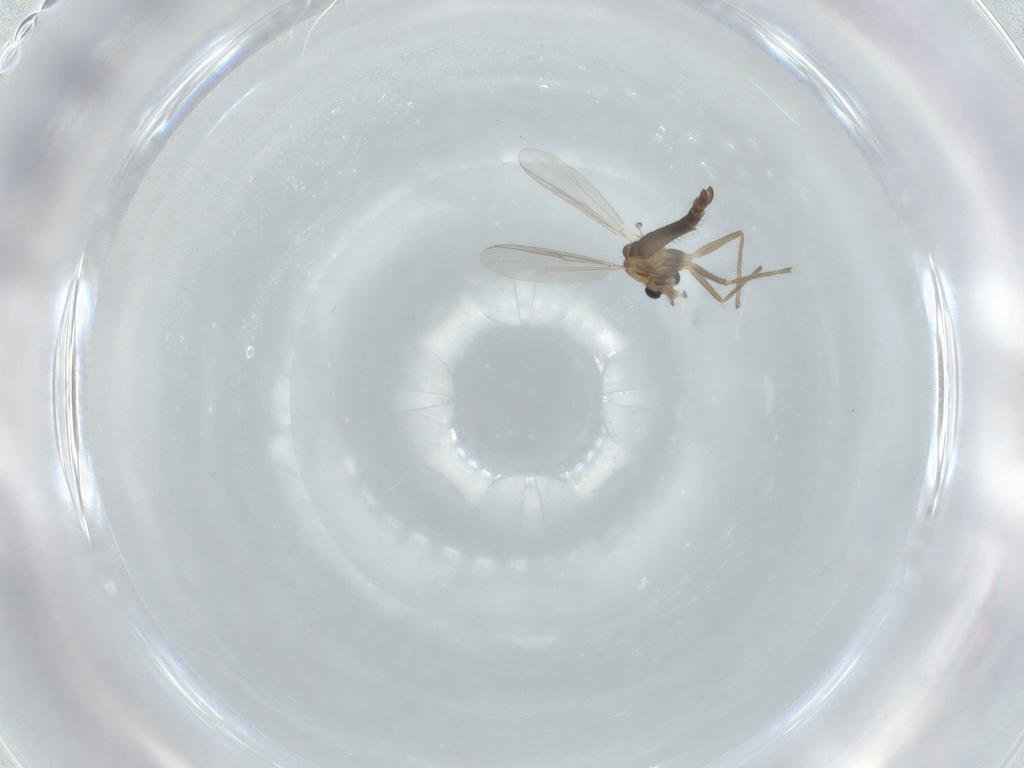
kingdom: Animalia
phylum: Arthropoda
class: Insecta
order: Diptera
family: Chironomidae
